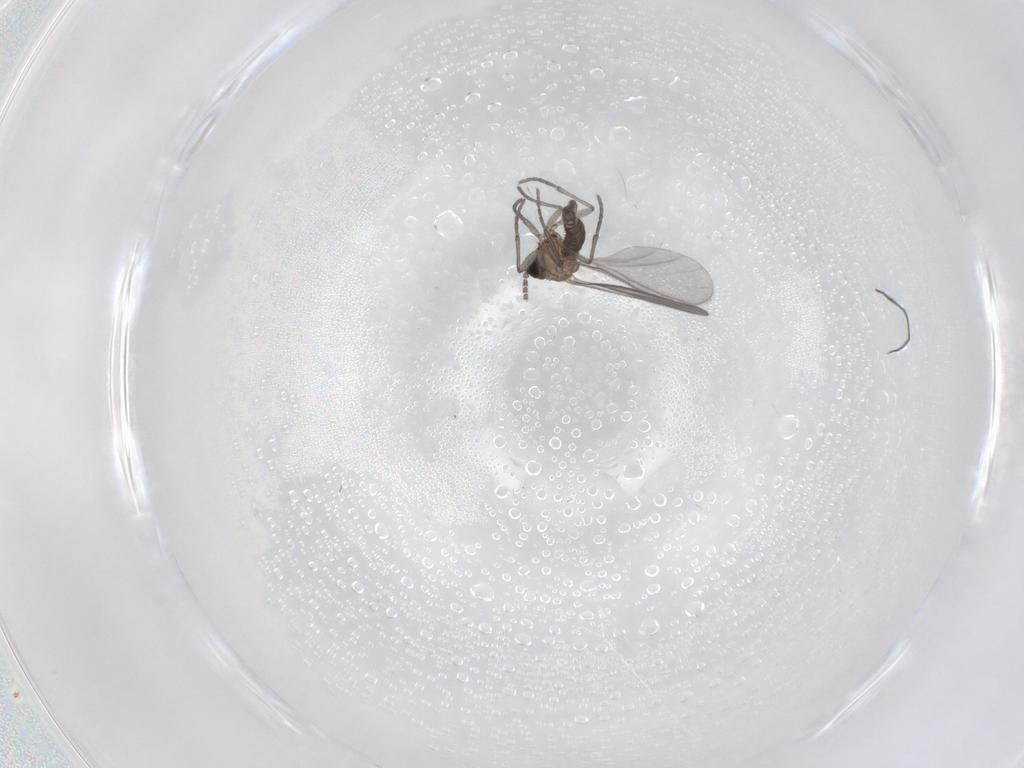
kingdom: Animalia
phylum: Arthropoda
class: Insecta
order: Diptera
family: Sciaridae
